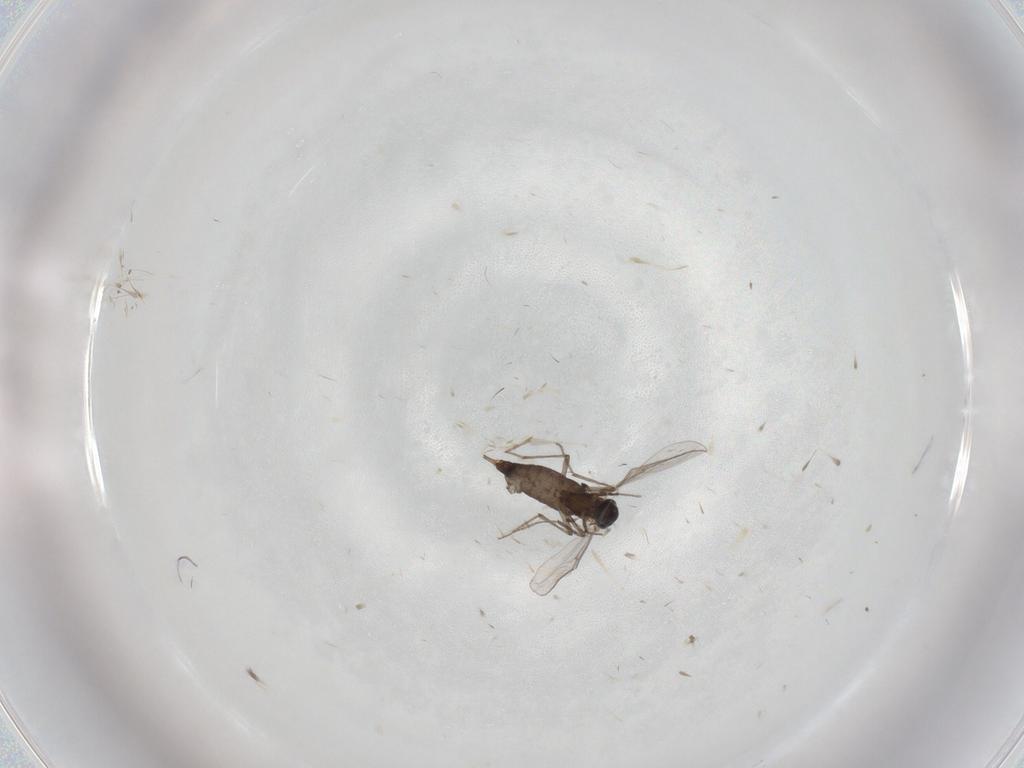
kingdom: Animalia
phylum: Arthropoda
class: Insecta
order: Diptera
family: Chironomidae
